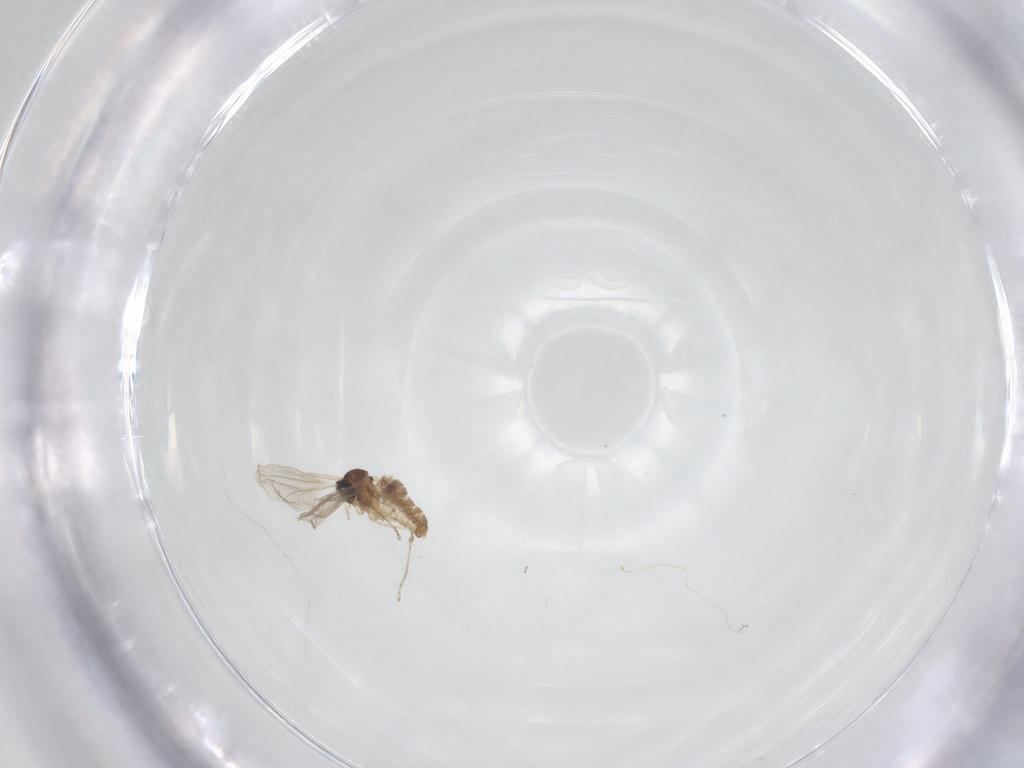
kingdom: Animalia
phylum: Arthropoda
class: Insecta
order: Diptera
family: Cecidomyiidae
